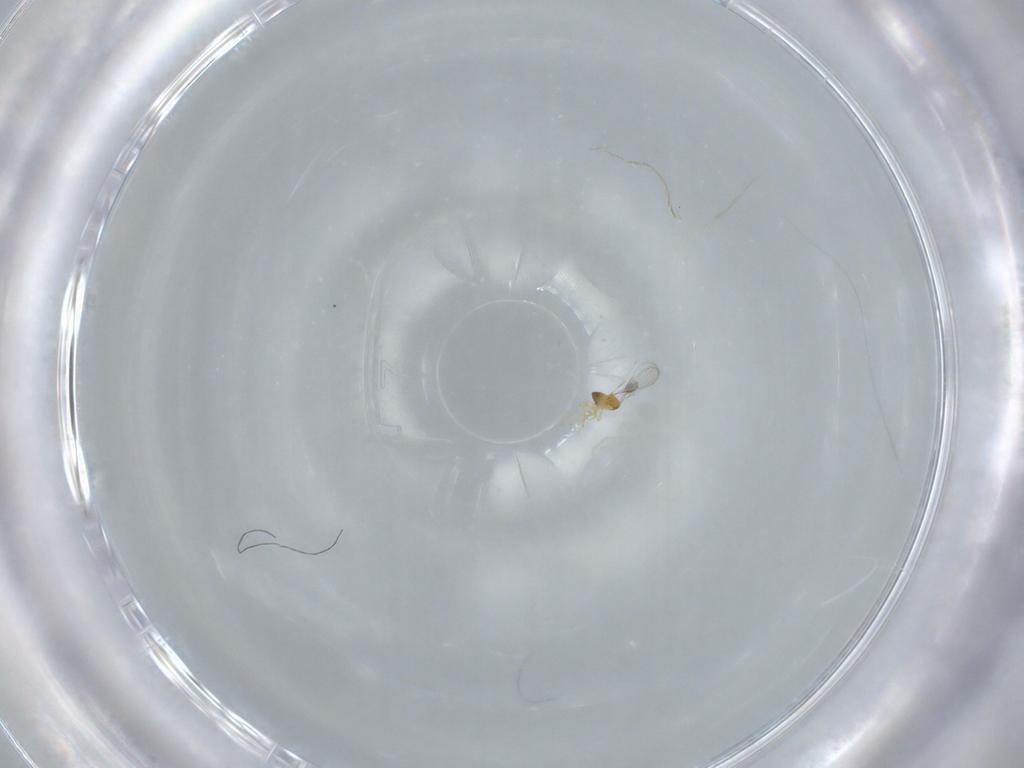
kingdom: Animalia
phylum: Arthropoda
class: Insecta
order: Hymenoptera
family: Trichogrammatidae
